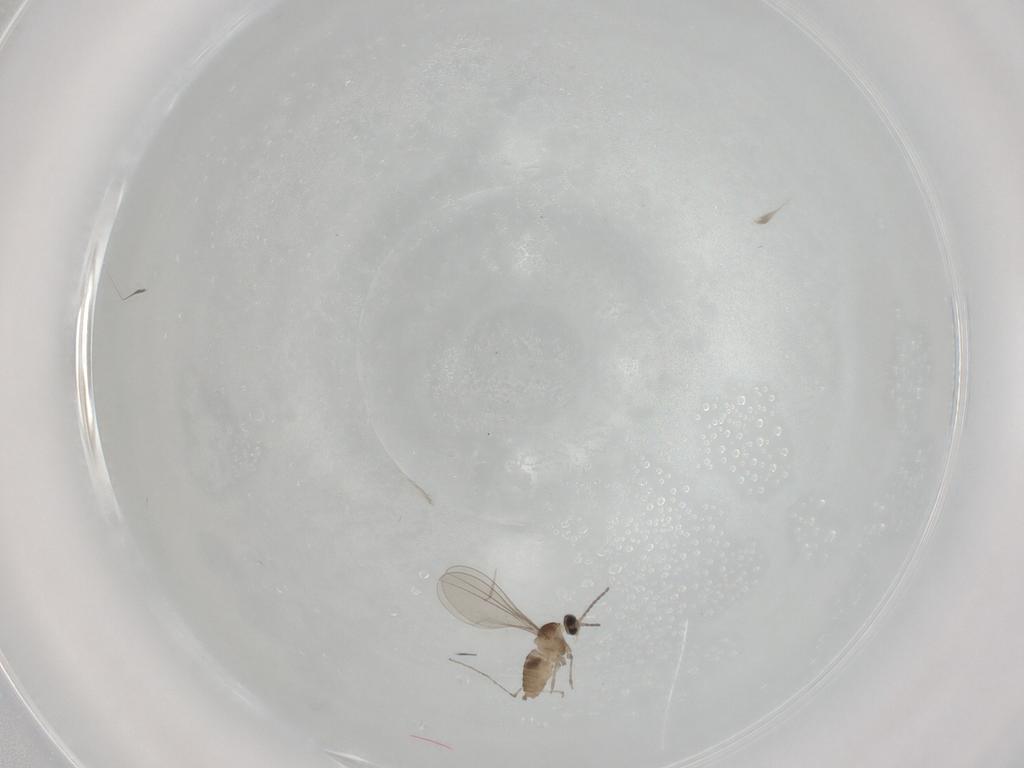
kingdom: Animalia
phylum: Arthropoda
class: Insecta
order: Diptera
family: Cecidomyiidae
